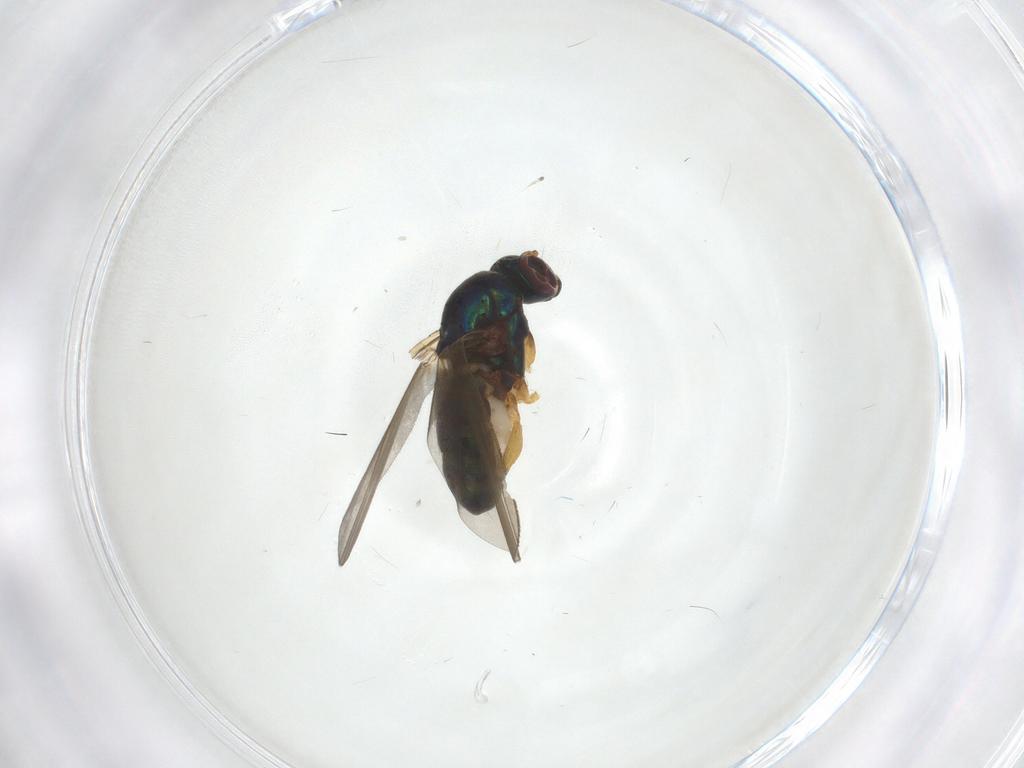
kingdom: Animalia
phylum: Arthropoda
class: Insecta
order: Diptera
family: Dolichopodidae
